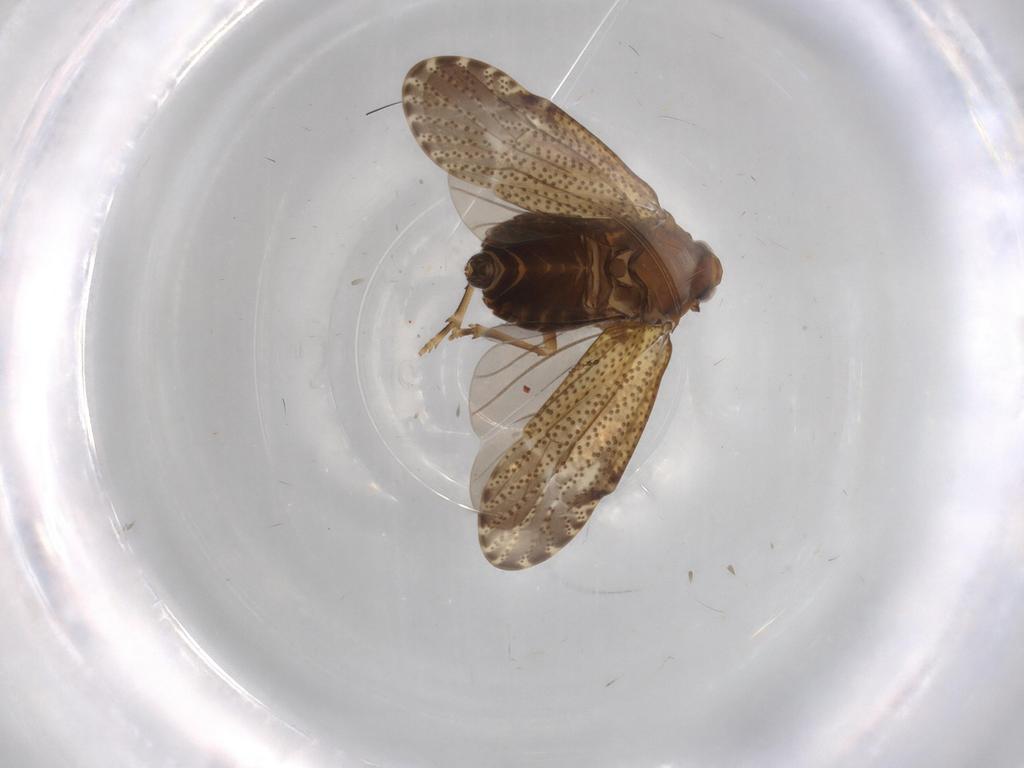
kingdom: Animalia
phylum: Arthropoda
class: Insecta
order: Hemiptera
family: Delphacidae
